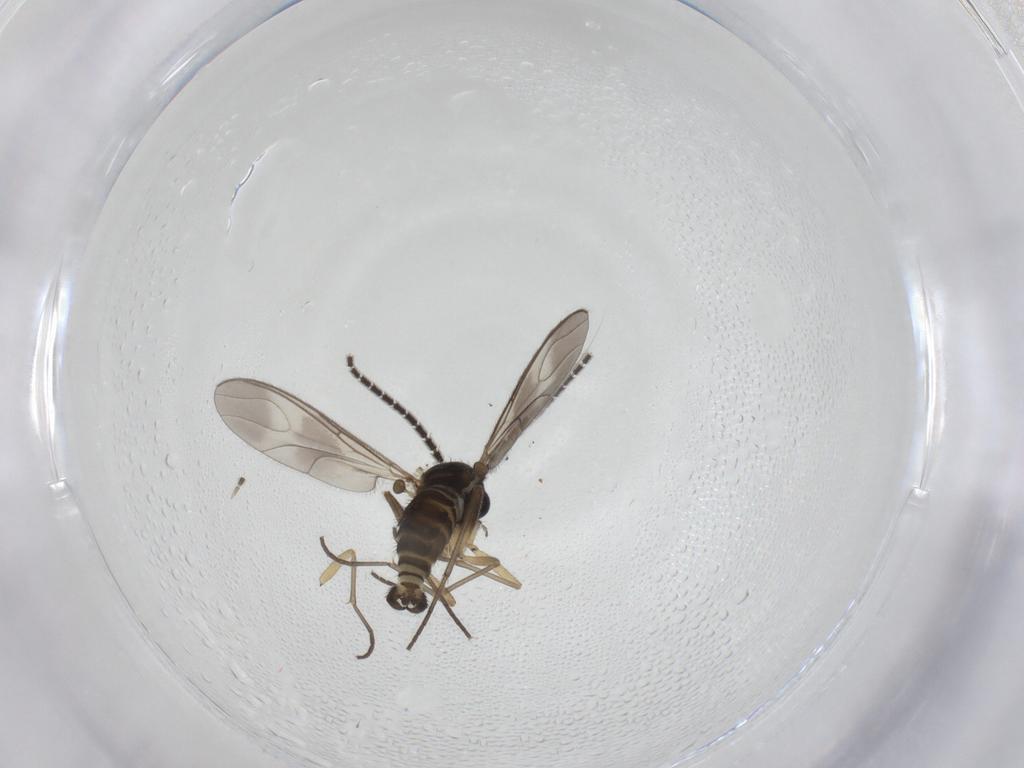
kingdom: Animalia
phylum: Arthropoda
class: Insecta
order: Diptera
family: Sciaridae
